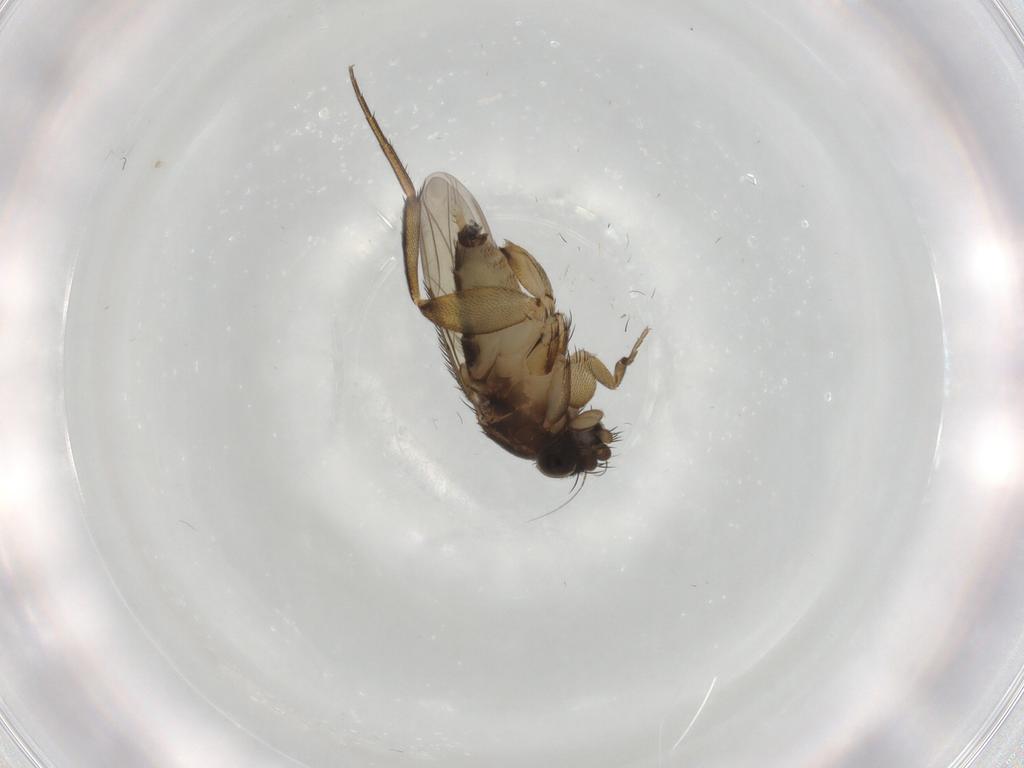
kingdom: Animalia
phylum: Arthropoda
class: Insecta
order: Diptera
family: Phoridae
